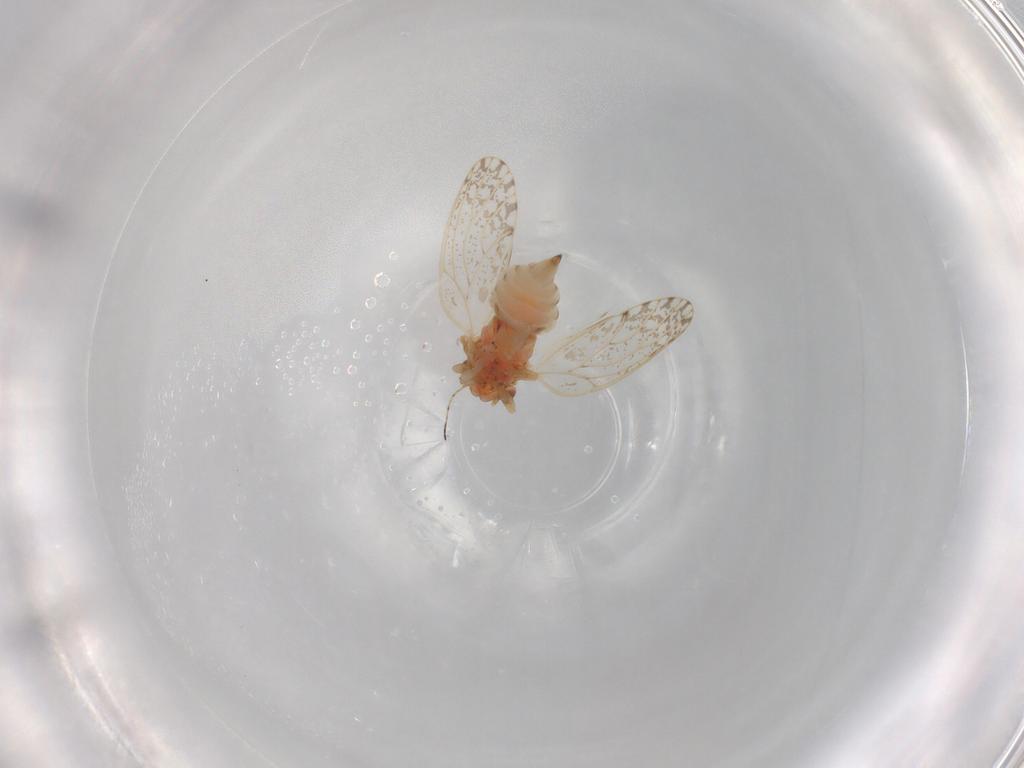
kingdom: Animalia
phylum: Arthropoda
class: Insecta
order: Hemiptera
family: Psyllidae
